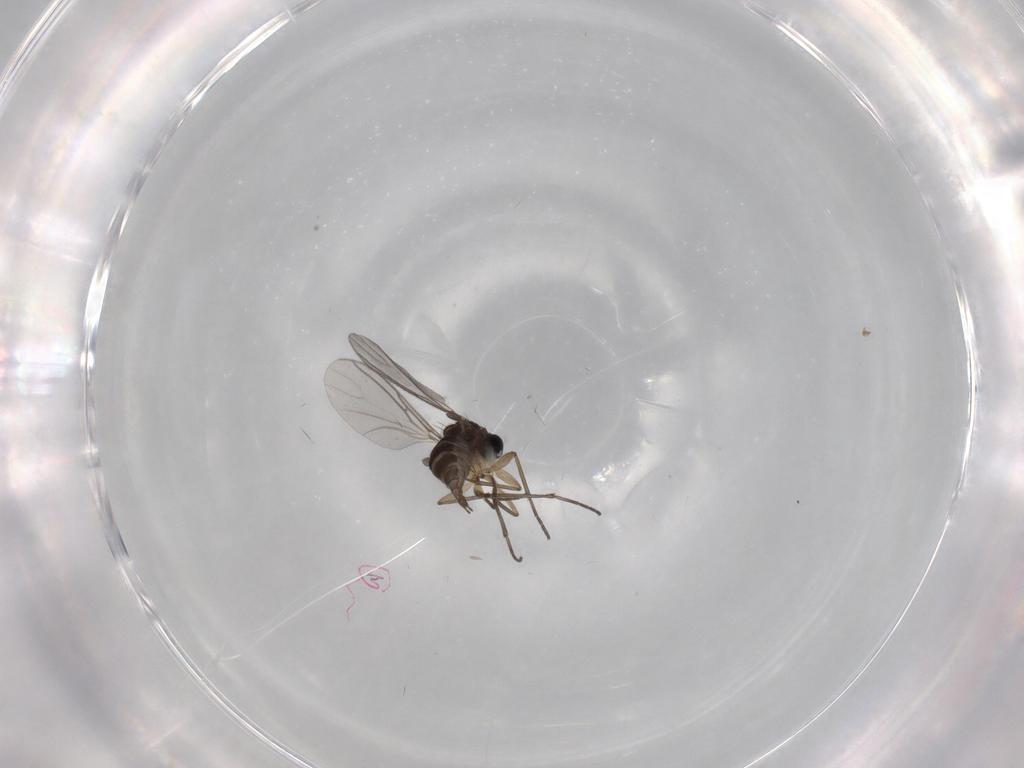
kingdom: Animalia
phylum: Arthropoda
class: Insecta
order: Diptera
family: Sciaridae
